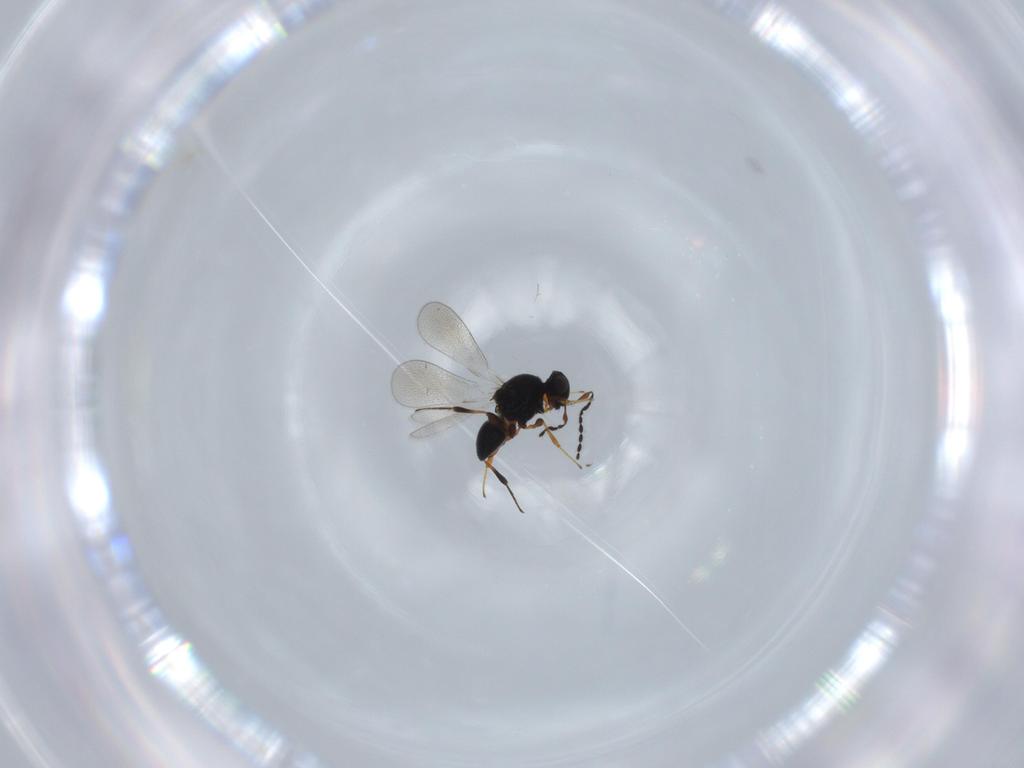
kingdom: Animalia
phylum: Arthropoda
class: Insecta
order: Hymenoptera
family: Platygastridae
